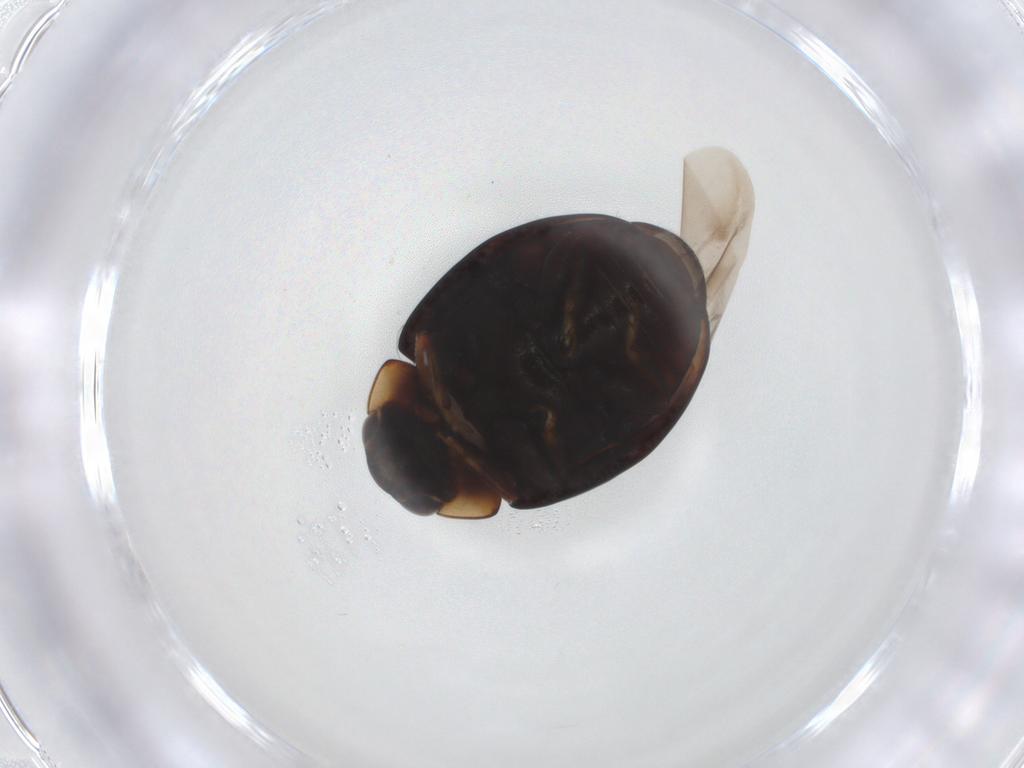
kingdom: Animalia
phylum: Arthropoda
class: Insecta
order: Coleoptera
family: Coccinellidae
